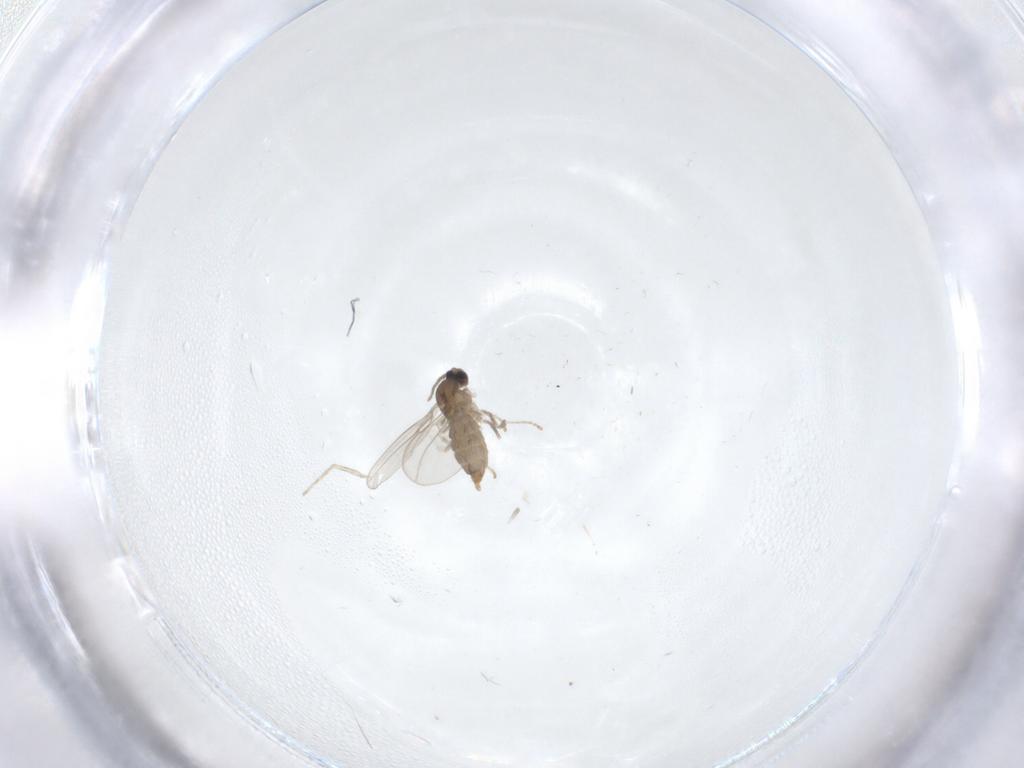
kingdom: Animalia
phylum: Arthropoda
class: Insecta
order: Diptera
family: Cecidomyiidae
